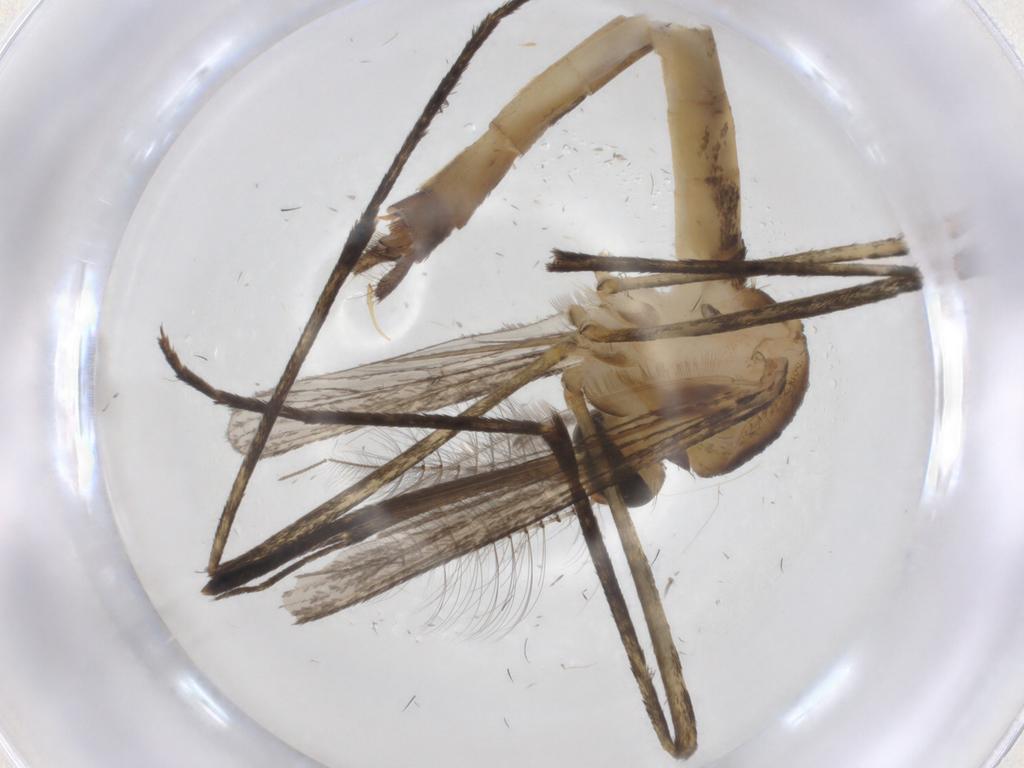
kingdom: Animalia
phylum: Arthropoda
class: Insecta
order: Diptera
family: Culicidae
